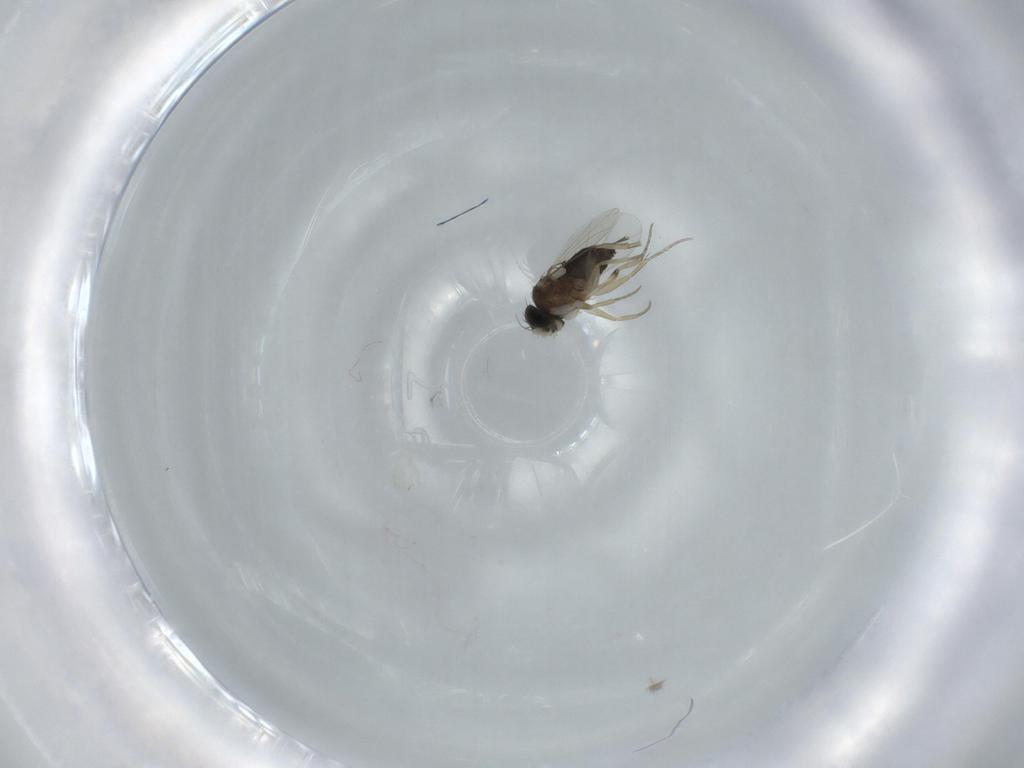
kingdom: Animalia
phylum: Arthropoda
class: Insecta
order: Diptera
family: Phoridae
